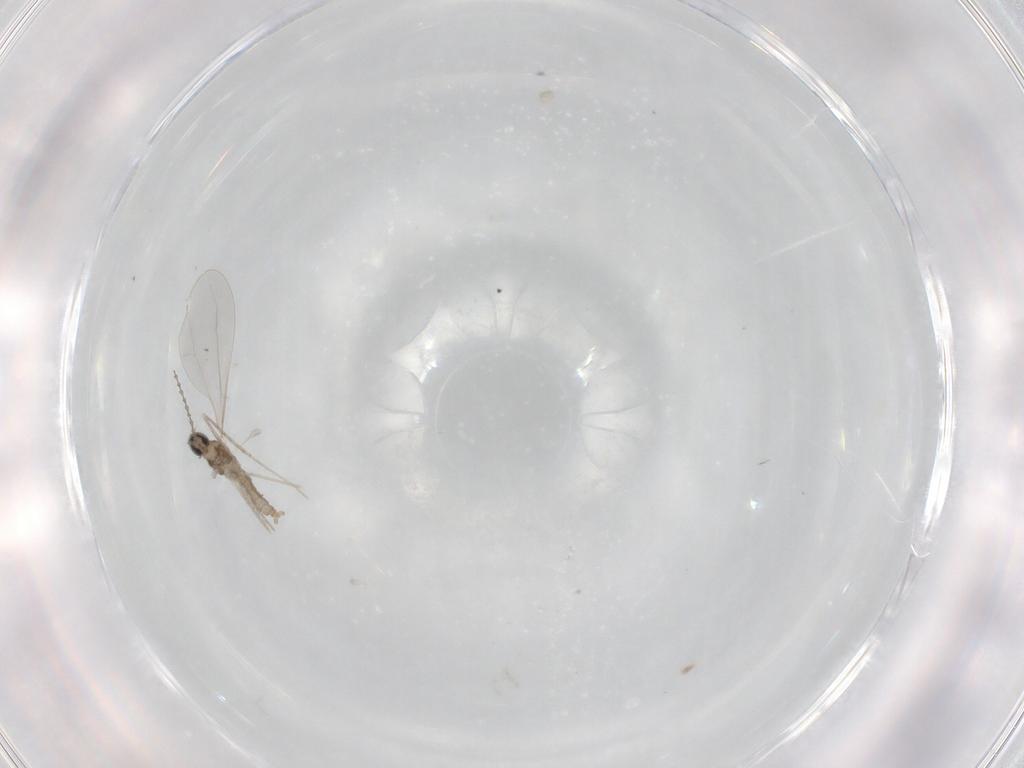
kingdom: Animalia
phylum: Arthropoda
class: Insecta
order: Diptera
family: Cecidomyiidae
